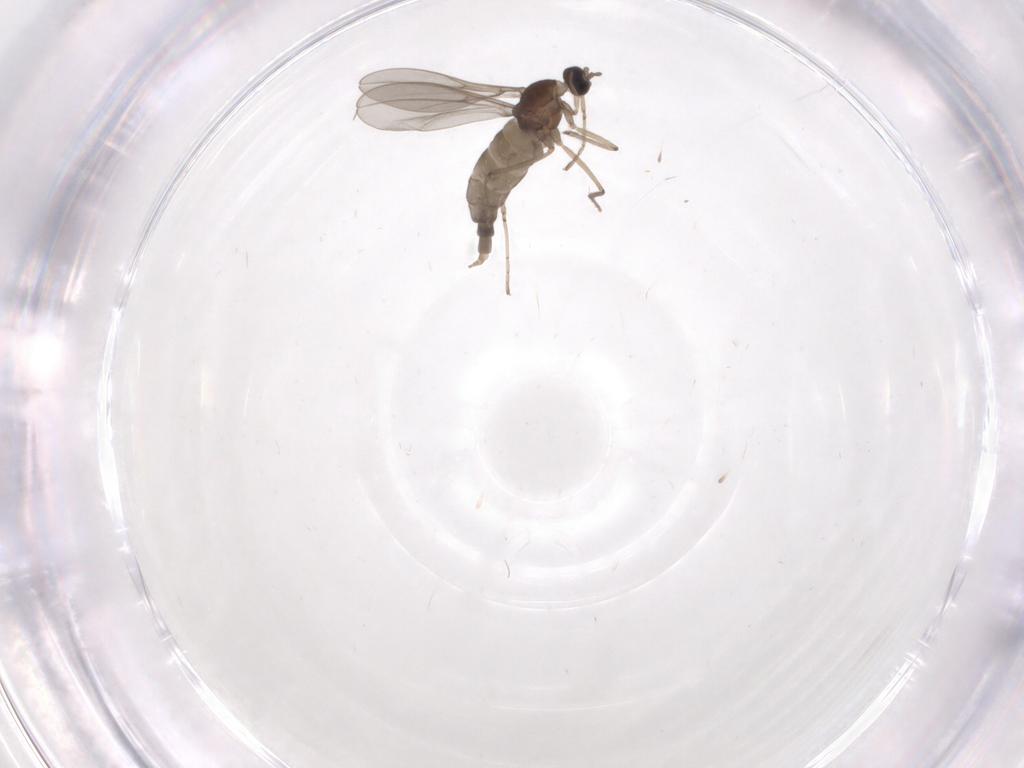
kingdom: Animalia
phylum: Arthropoda
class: Insecta
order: Diptera
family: Cecidomyiidae
